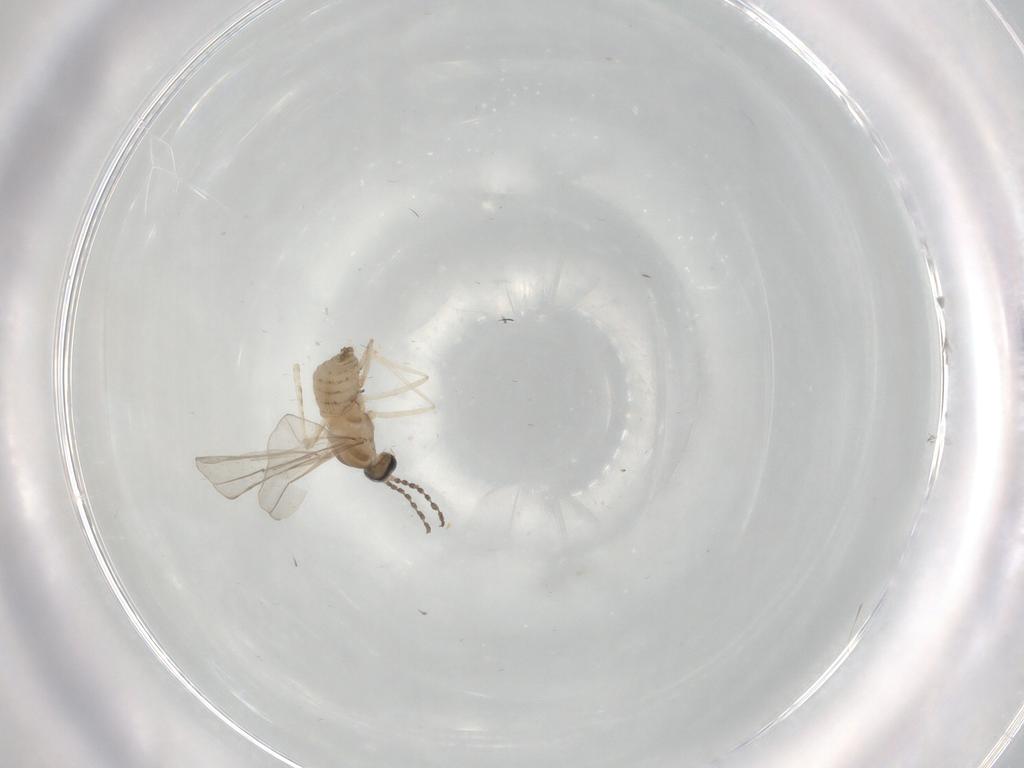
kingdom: Animalia
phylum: Arthropoda
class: Insecta
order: Diptera
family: Cecidomyiidae
